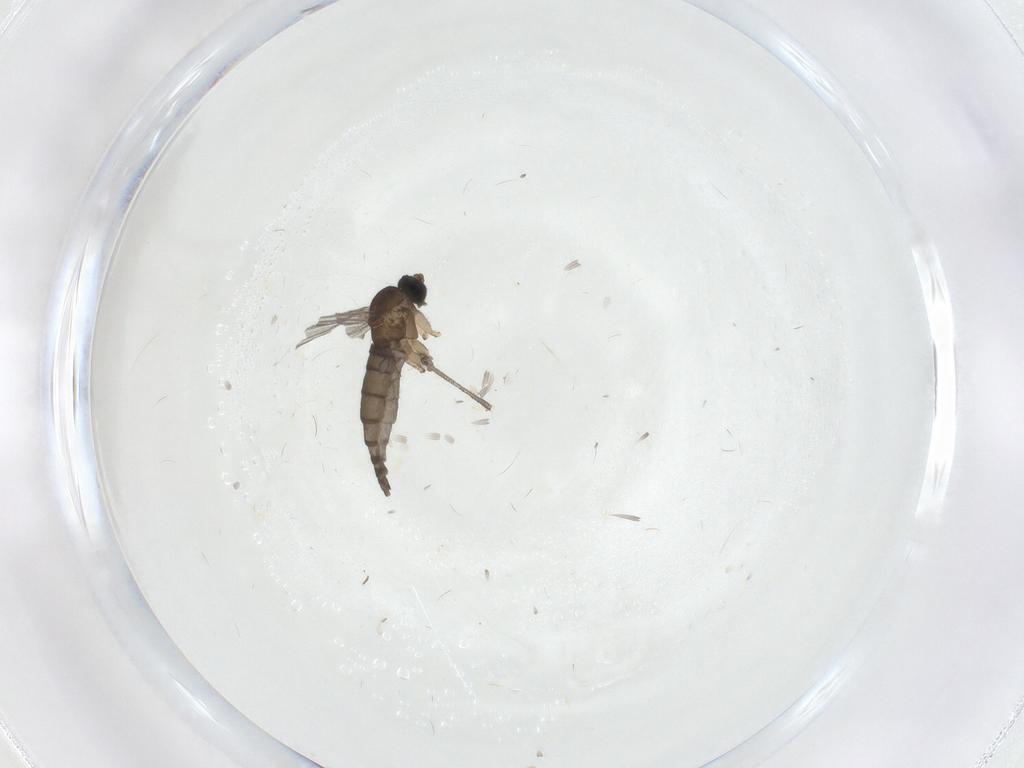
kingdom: Animalia
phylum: Arthropoda
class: Insecta
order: Diptera
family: Sciaridae
